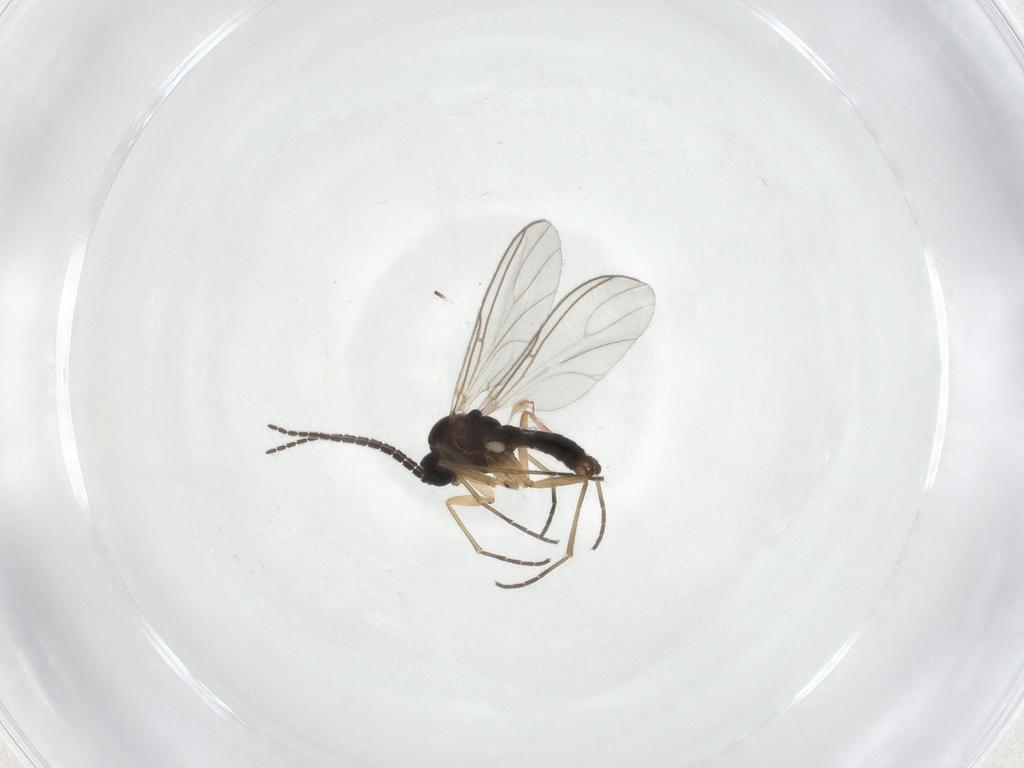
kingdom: Animalia
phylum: Arthropoda
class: Insecta
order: Diptera
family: Sciaridae
